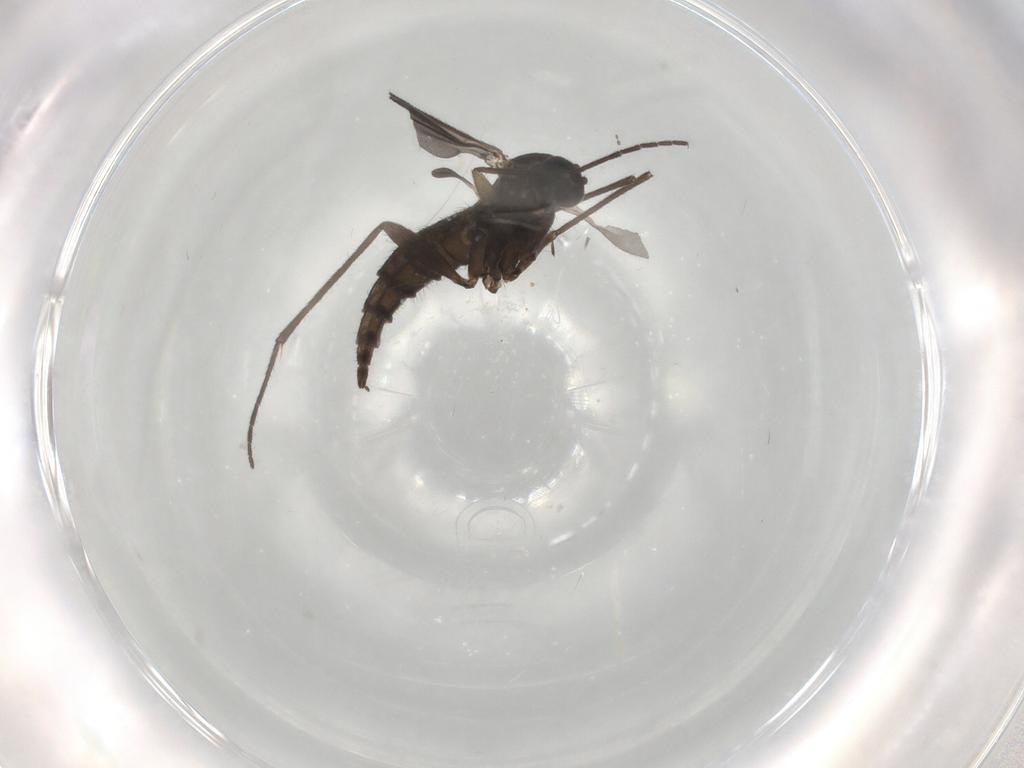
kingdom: Animalia
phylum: Arthropoda
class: Insecta
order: Diptera
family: Sciaridae
